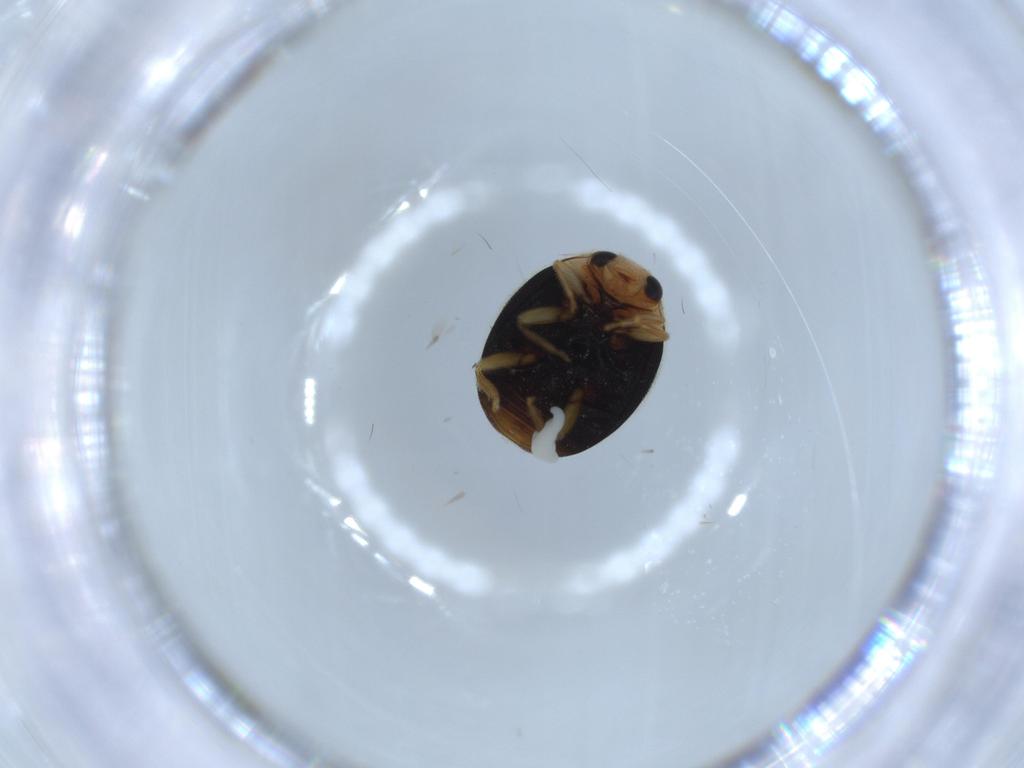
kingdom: Animalia
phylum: Arthropoda
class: Insecta
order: Coleoptera
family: Coccinellidae
